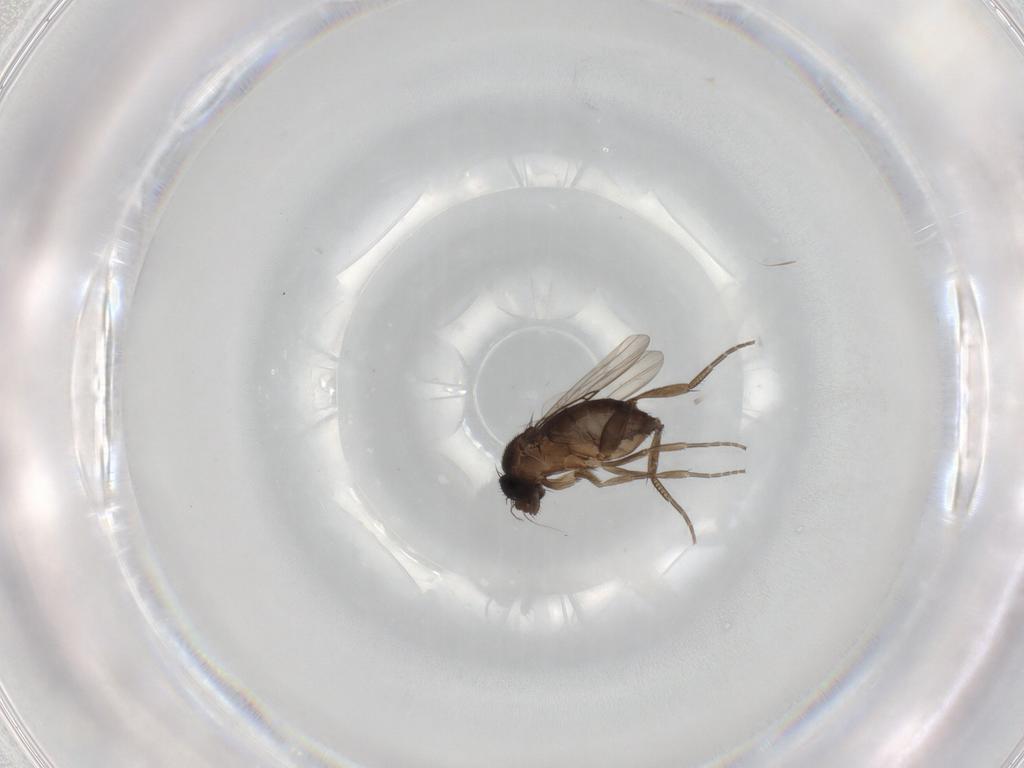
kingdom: Animalia
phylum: Arthropoda
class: Insecta
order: Diptera
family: Phoridae
